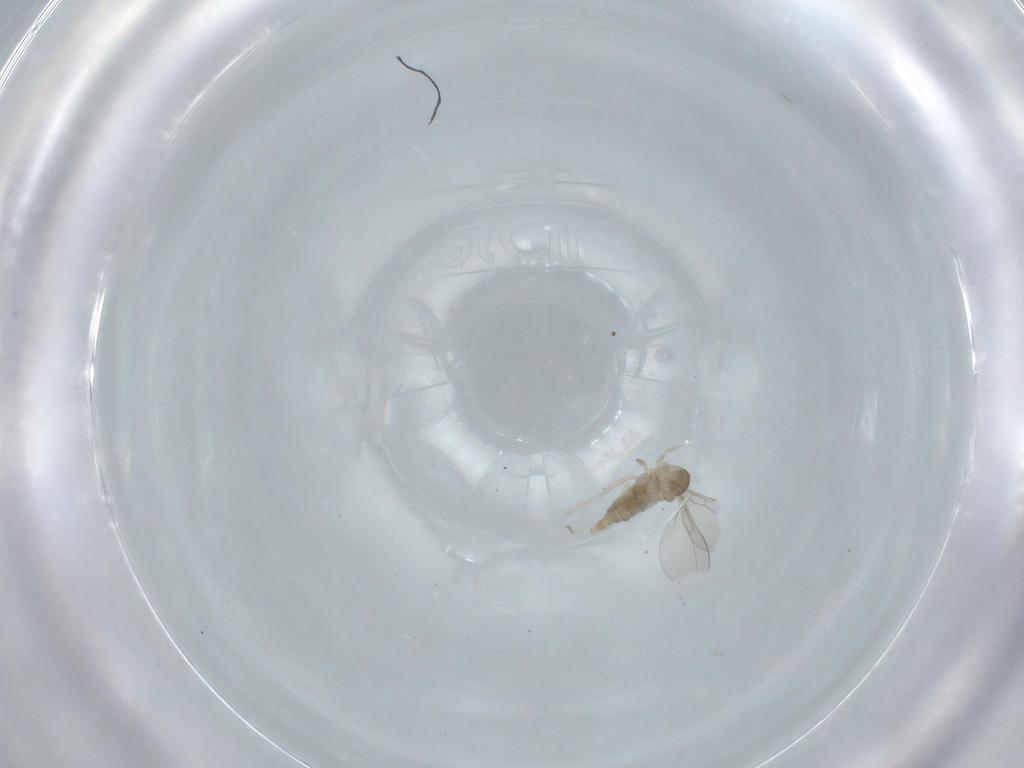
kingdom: Animalia
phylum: Arthropoda
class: Insecta
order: Diptera
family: Cecidomyiidae
